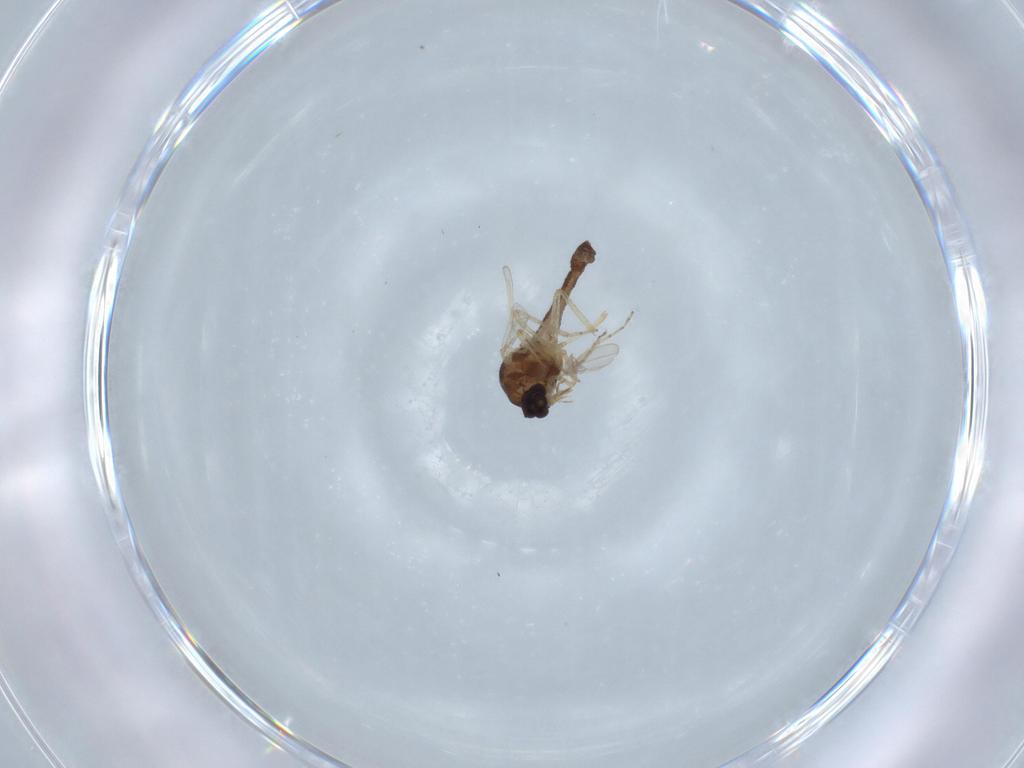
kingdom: Animalia
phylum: Arthropoda
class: Insecta
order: Diptera
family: Ceratopogonidae
